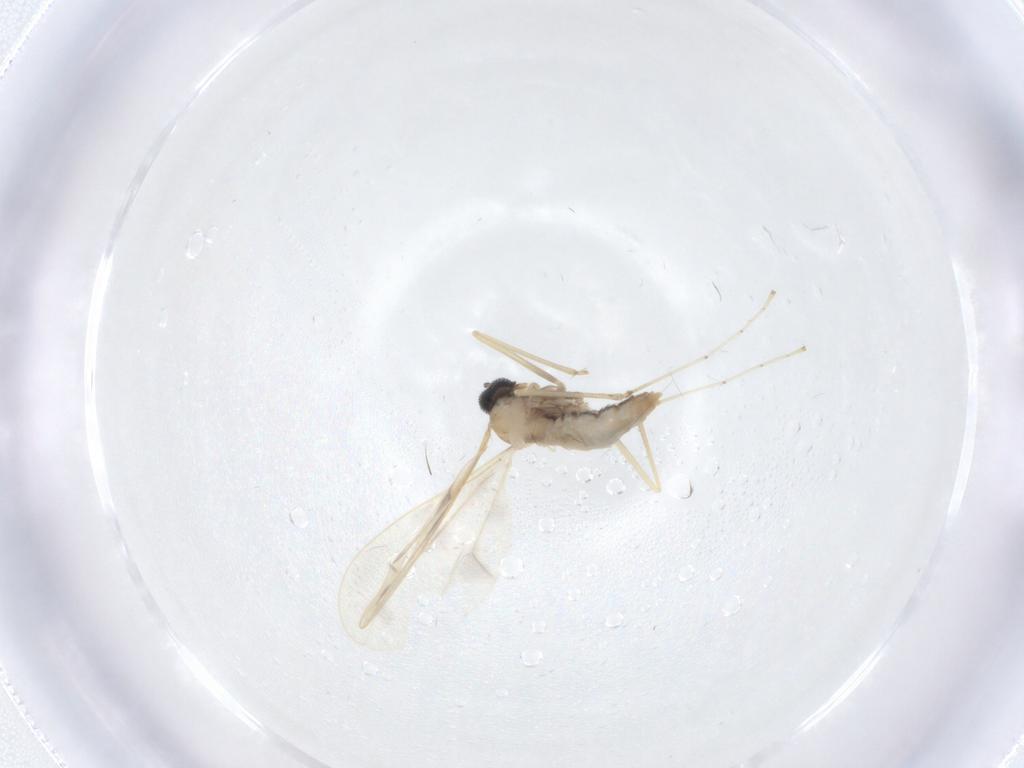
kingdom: Animalia
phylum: Arthropoda
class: Insecta
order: Diptera
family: Cecidomyiidae
